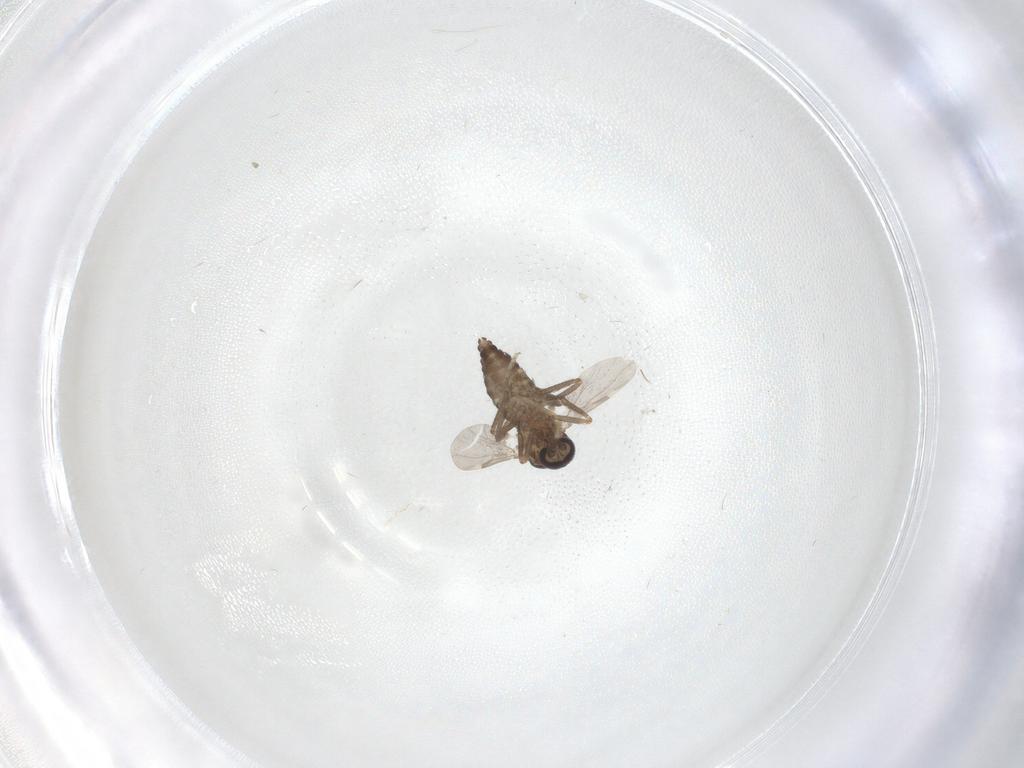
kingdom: Animalia
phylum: Arthropoda
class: Insecta
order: Diptera
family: Ceratopogonidae
